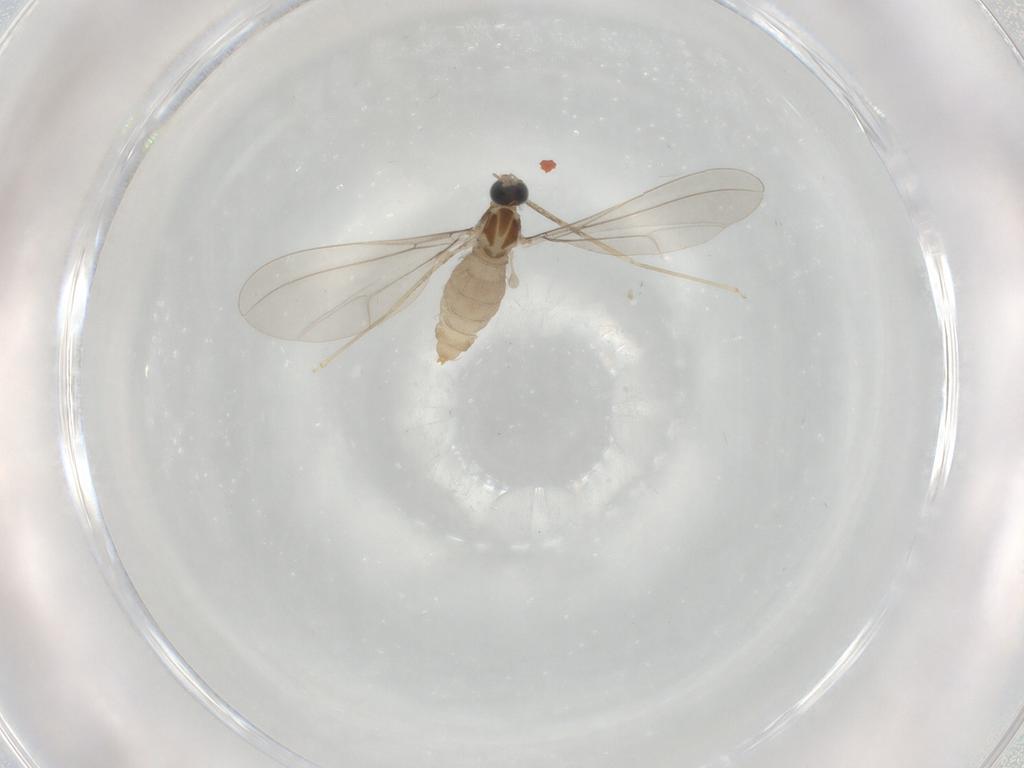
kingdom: Animalia
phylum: Arthropoda
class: Insecta
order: Diptera
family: Cecidomyiidae
